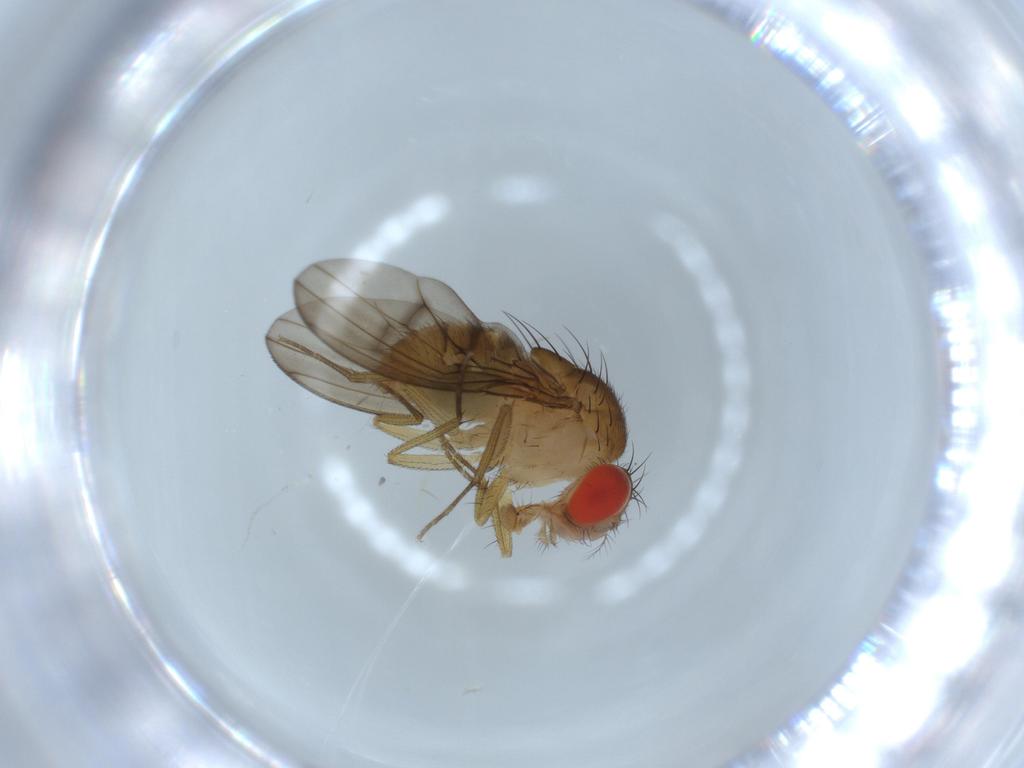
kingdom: Animalia
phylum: Arthropoda
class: Insecta
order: Diptera
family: Drosophilidae
